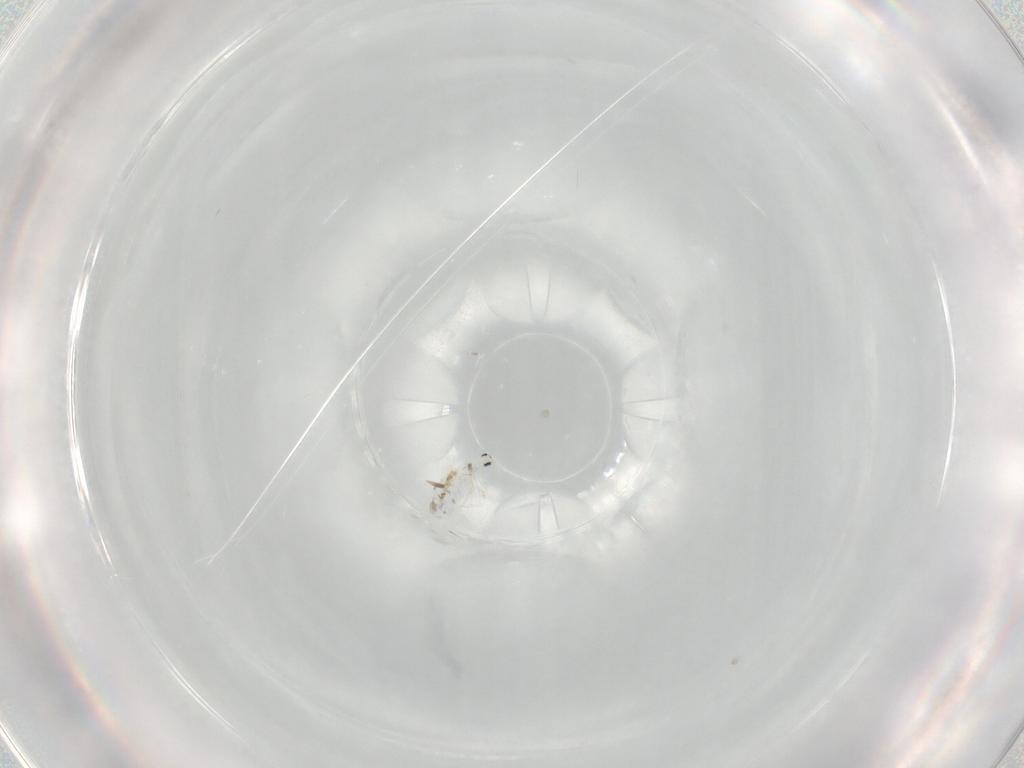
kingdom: Animalia
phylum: Arthropoda
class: Collembola
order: Entomobryomorpha
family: Entomobryidae
